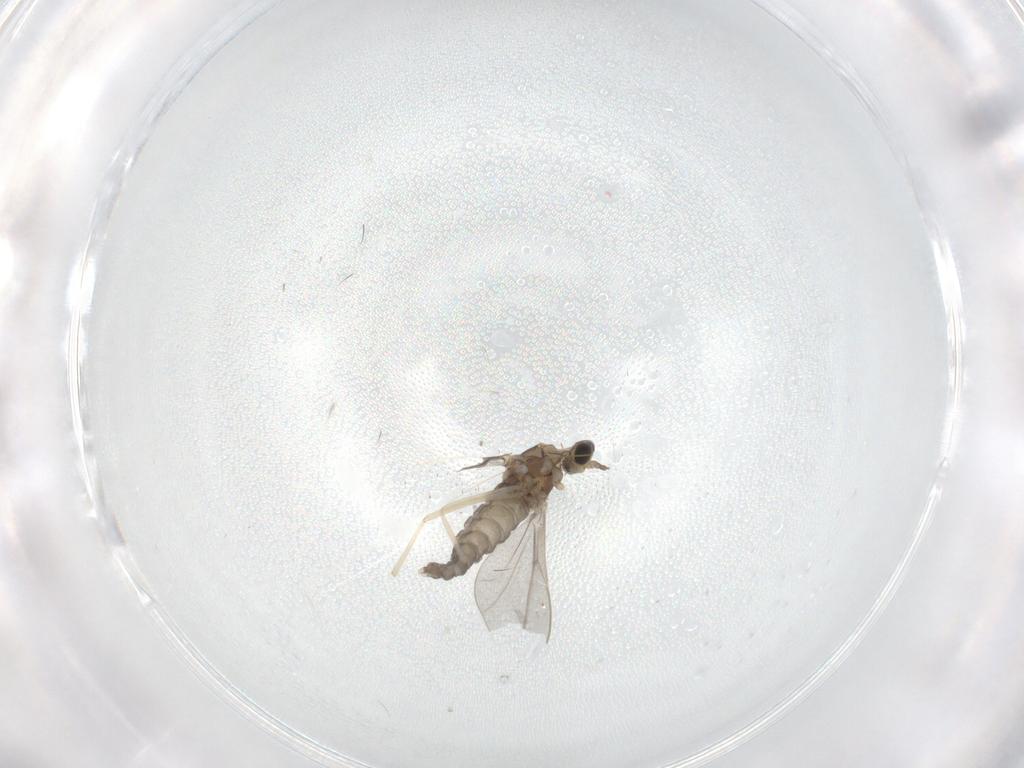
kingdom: Animalia
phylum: Arthropoda
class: Insecta
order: Diptera
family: Cecidomyiidae
